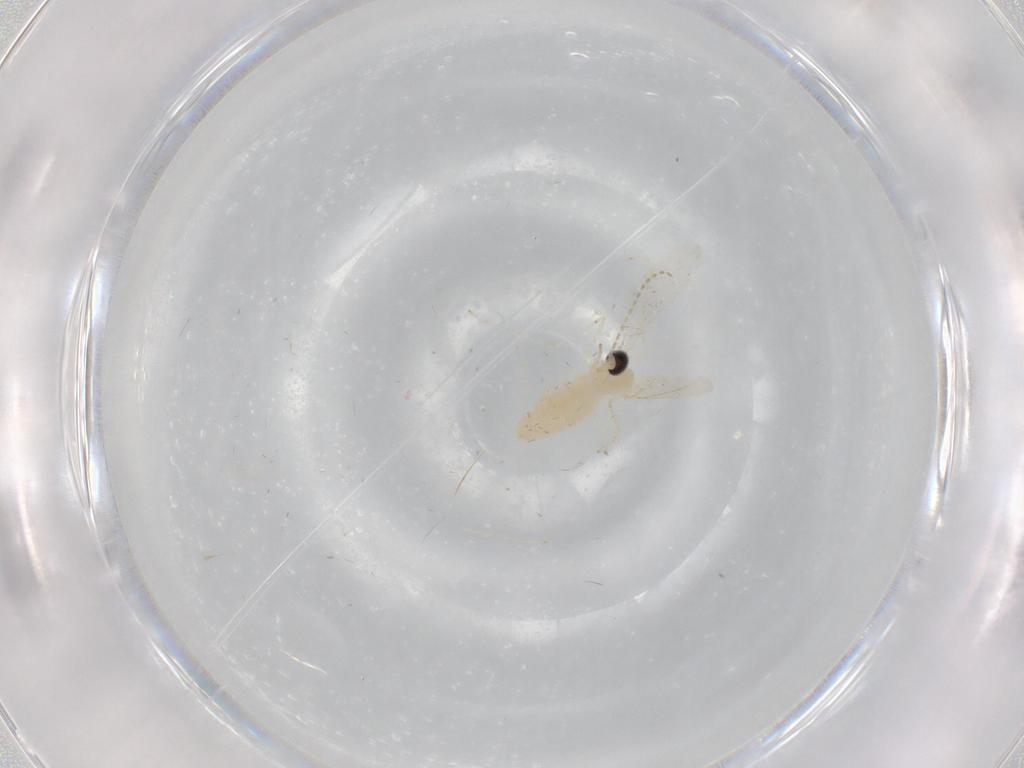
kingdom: Animalia
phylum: Arthropoda
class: Insecta
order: Diptera
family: Cecidomyiidae
